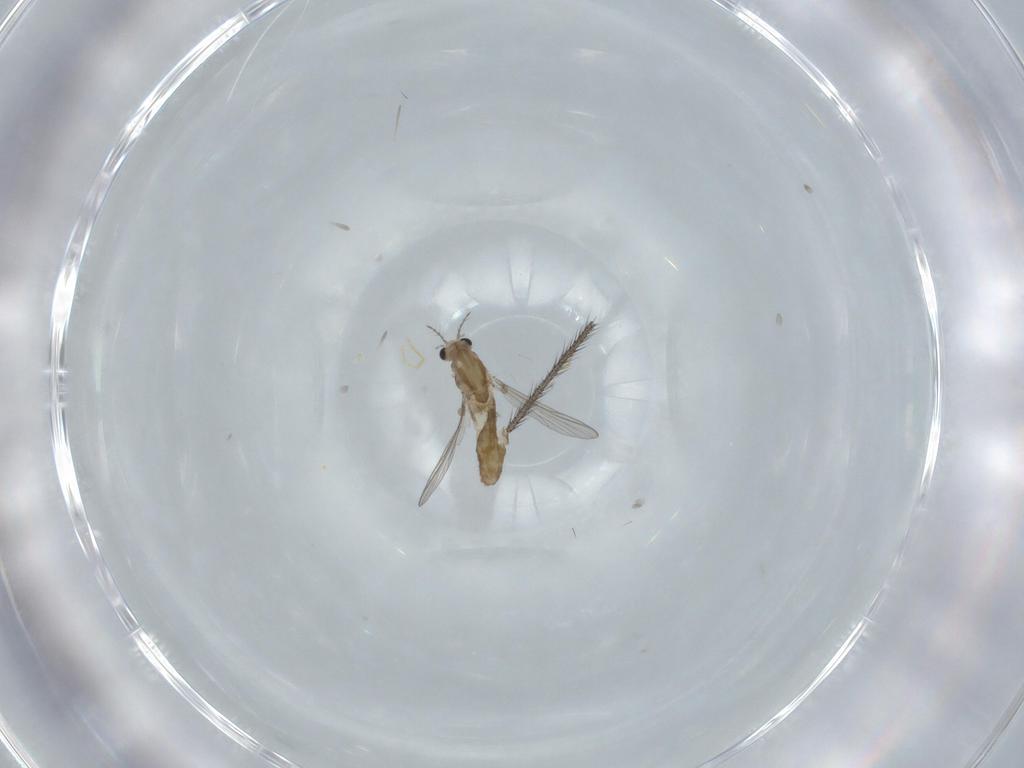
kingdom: Animalia
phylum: Arthropoda
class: Insecta
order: Diptera
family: Chironomidae
